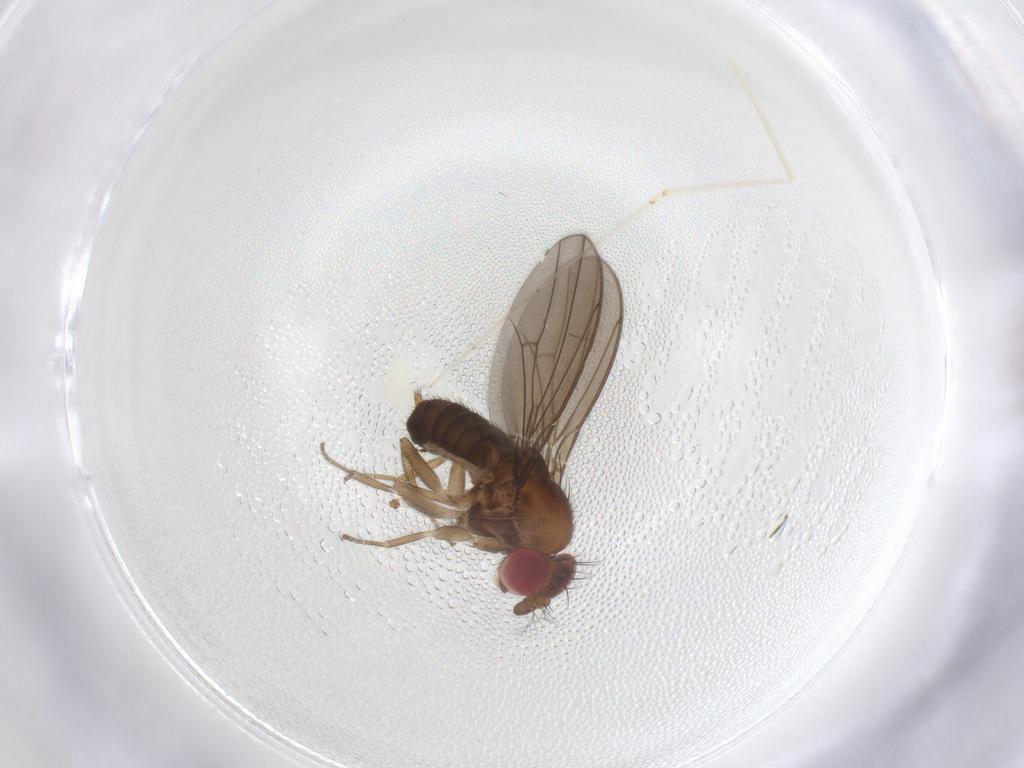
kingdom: Animalia
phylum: Arthropoda
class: Insecta
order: Diptera
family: Drosophilidae
